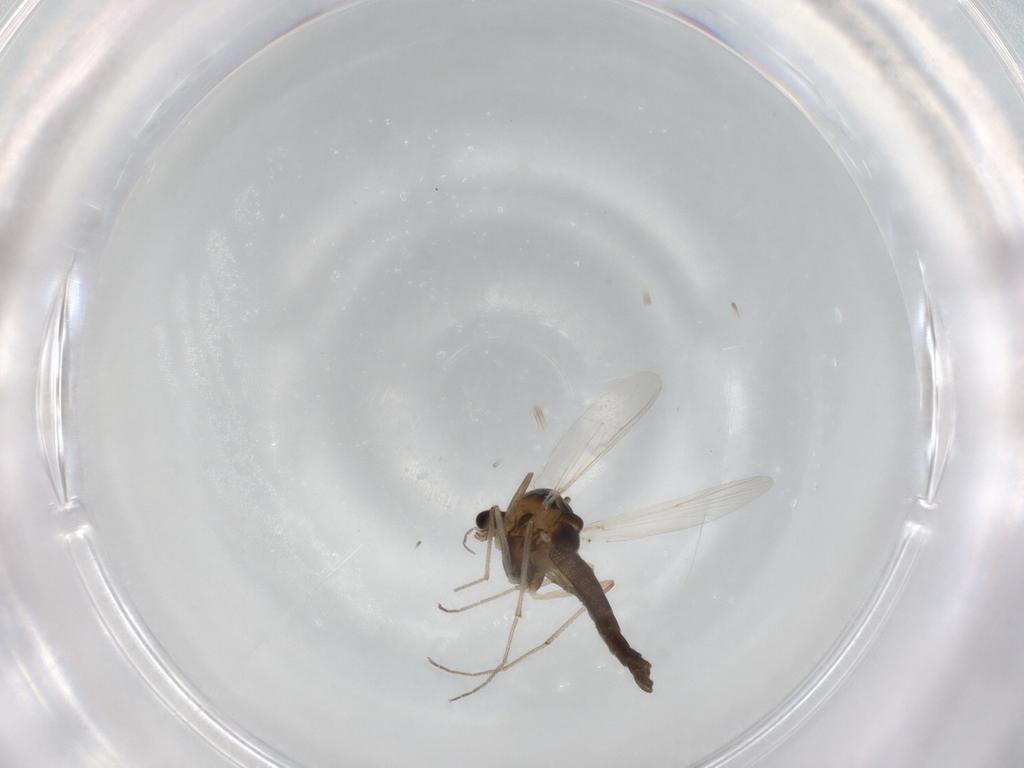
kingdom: Animalia
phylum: Arthropoda
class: Insecta
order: Diptera
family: Chironomidae
